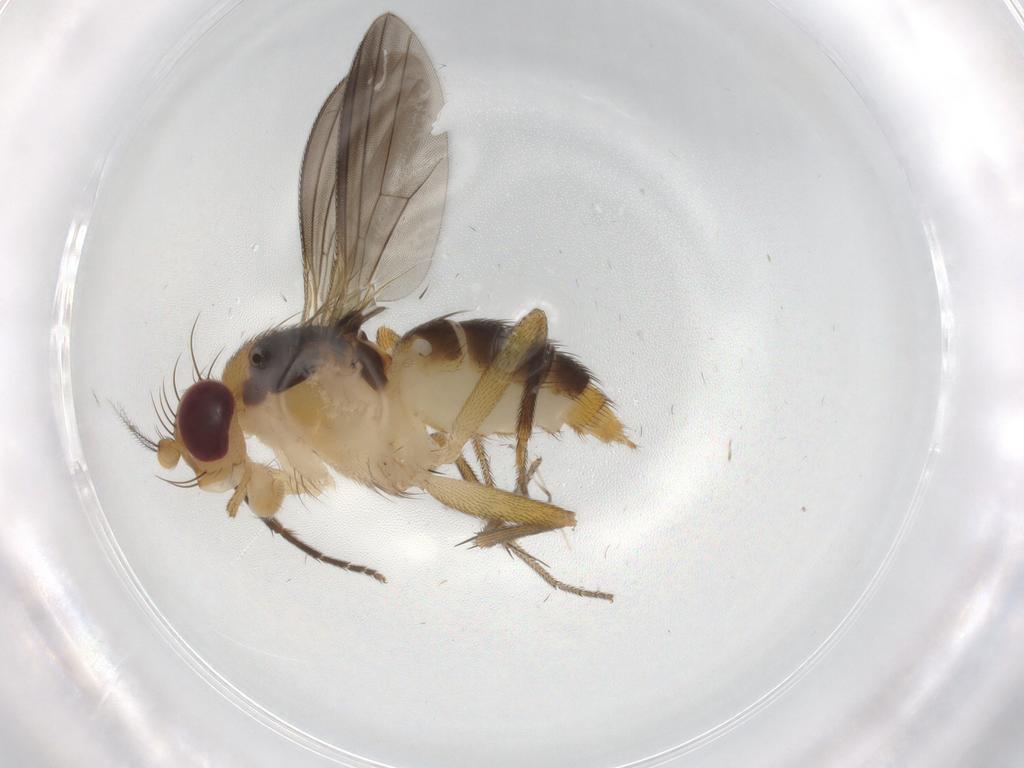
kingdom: Animalia
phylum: Arthropoda
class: Insecta
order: Diptera
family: Clusiidae
